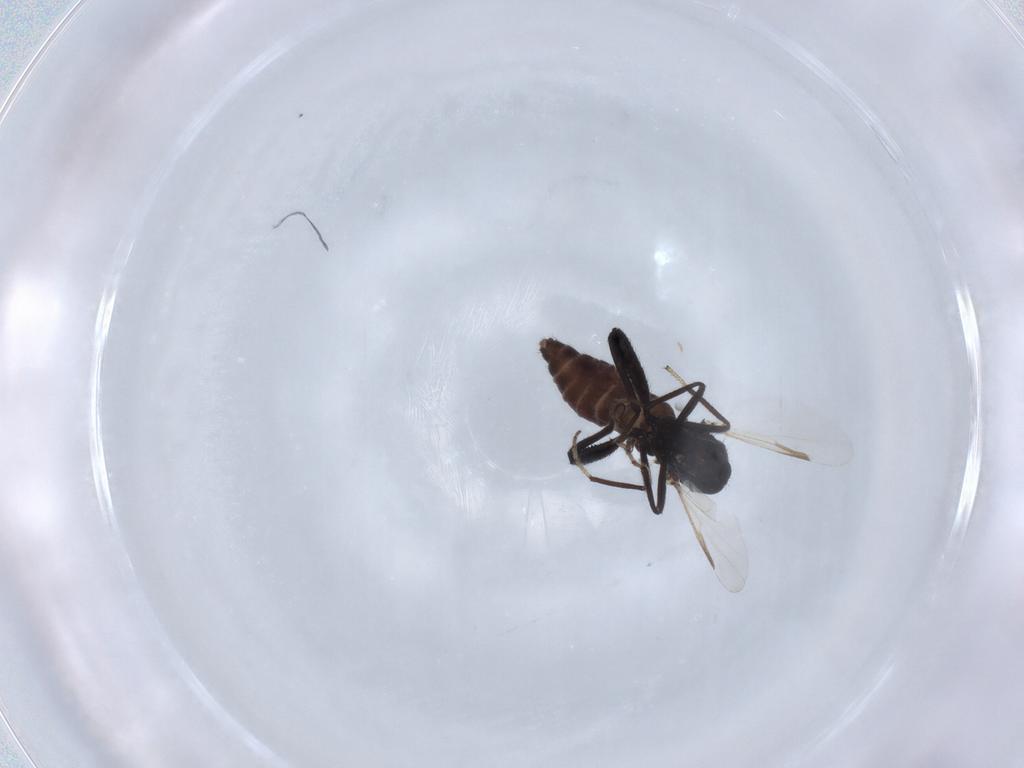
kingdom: Animalia
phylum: Arthropoda
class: Insecta
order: Diptera
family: Ceratopogonidae
